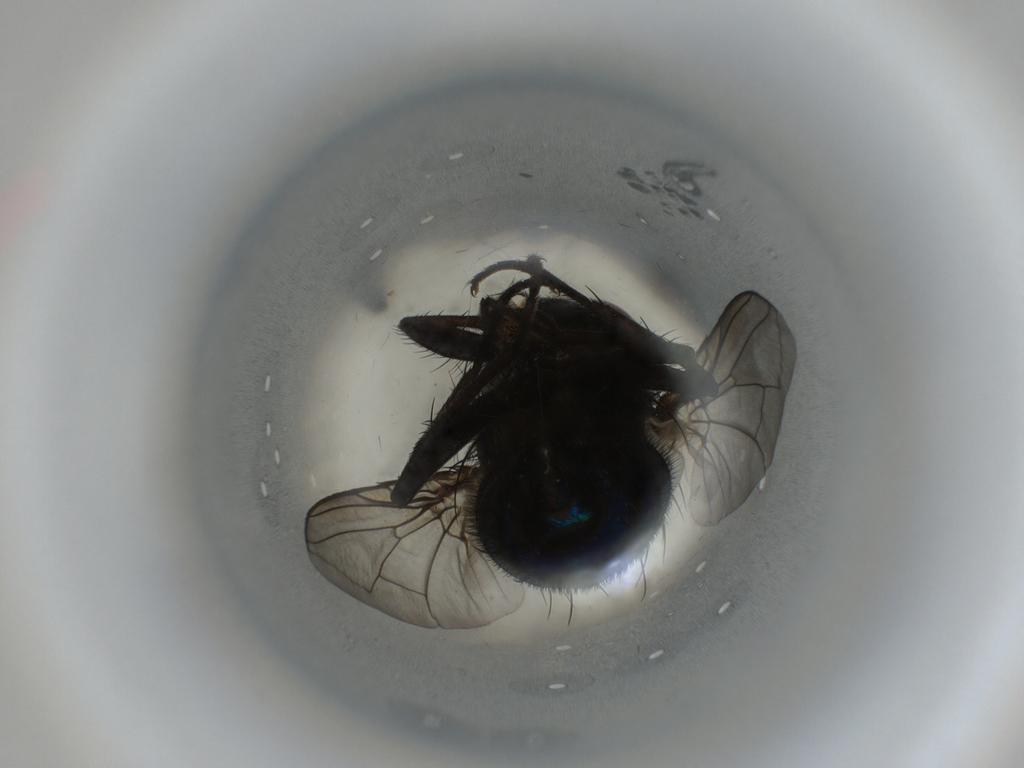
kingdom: Animalia
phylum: Arthropoda
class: Insecta
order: Diptera
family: Calliphoridae
